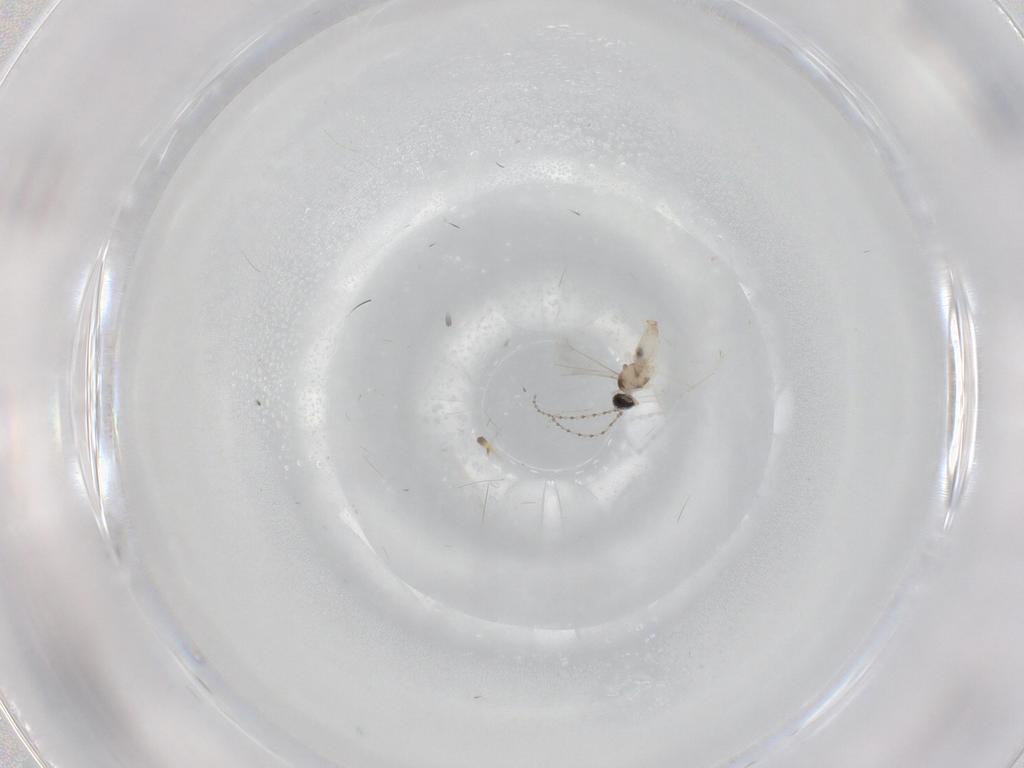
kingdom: Animalia
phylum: Arthropoda
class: Insecta
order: Diptera
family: Cecidomyiidae
